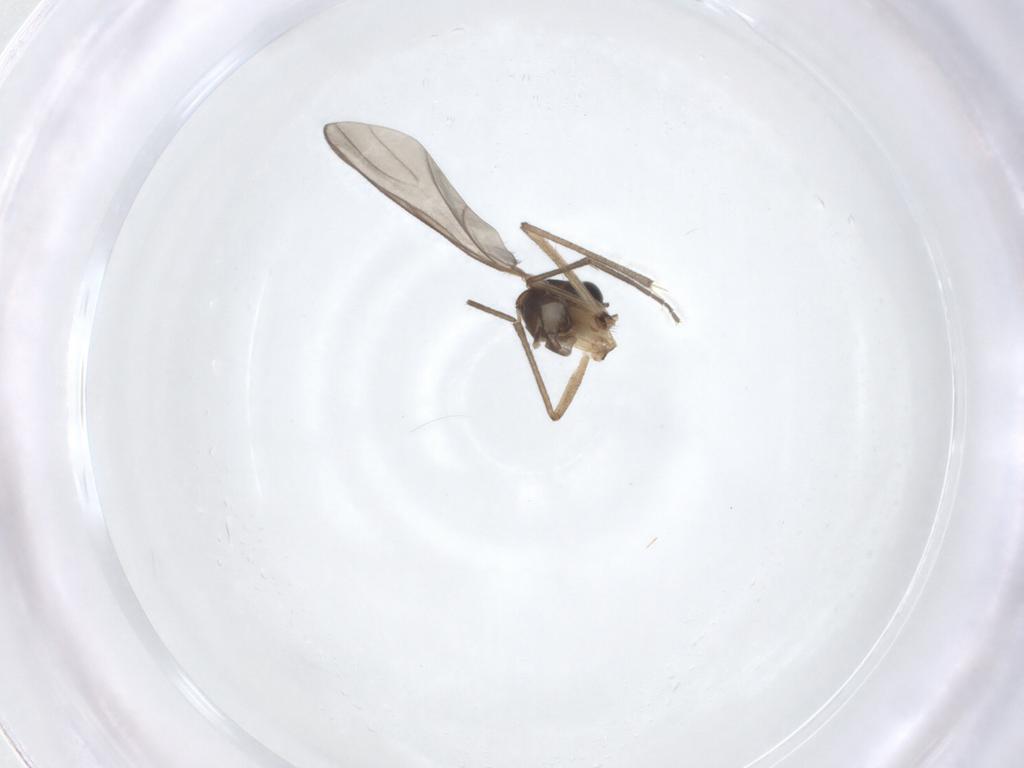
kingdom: Animalia
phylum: Arthropoda
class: Insecta
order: Diptera
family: Sciaridae
